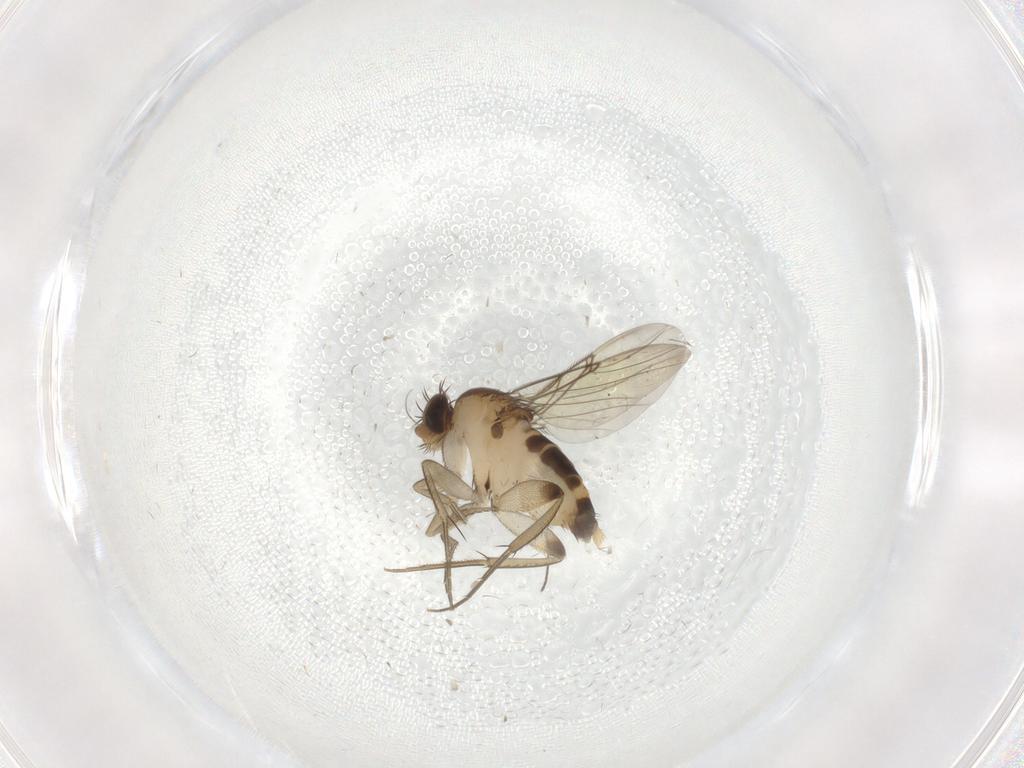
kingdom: Animalia
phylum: Arthropoda
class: Insecta
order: Diptera
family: Phoridae
